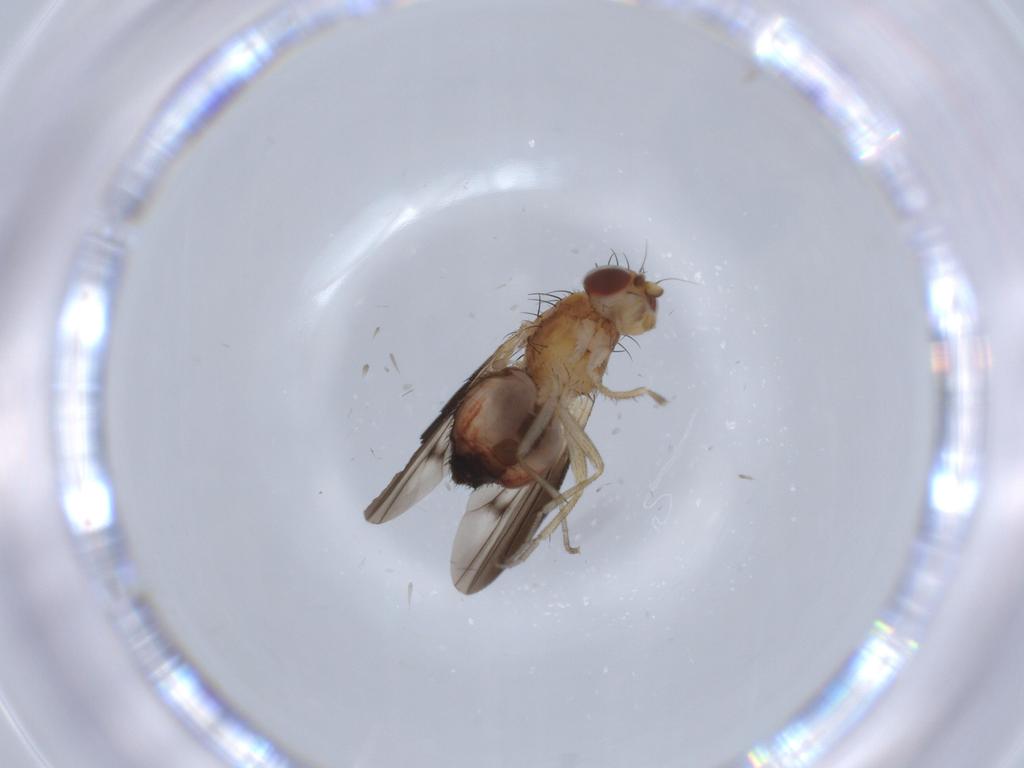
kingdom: Animalia
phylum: Arthropoda
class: Insecta
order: Diptera
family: Heleomyzidae
